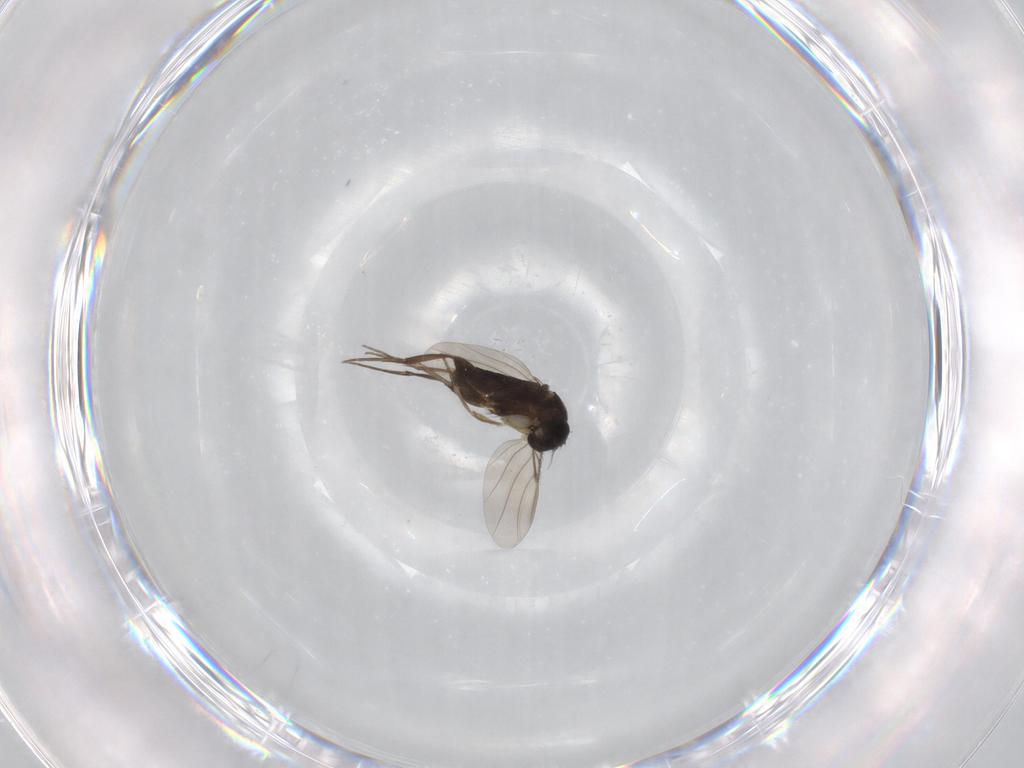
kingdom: Animalia
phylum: Arthropoda
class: Insecta
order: Diptera
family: Phoridae
